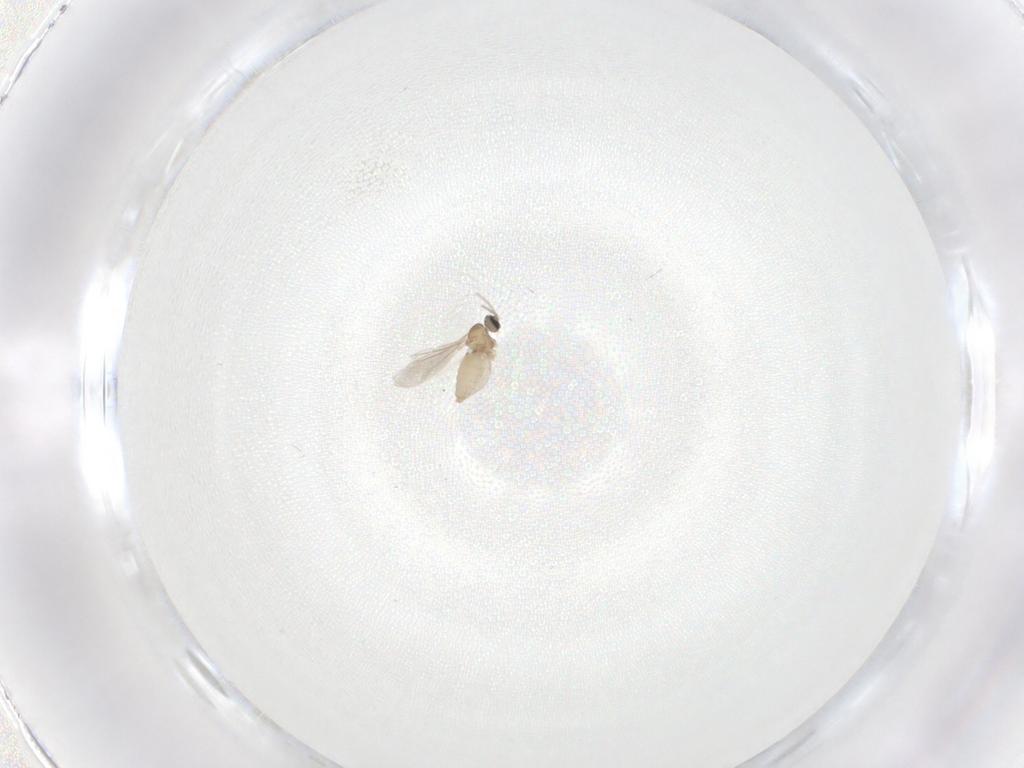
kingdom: Animalia
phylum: Arthropoda
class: Insecta
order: Diptera
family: Cecidomyiidae
